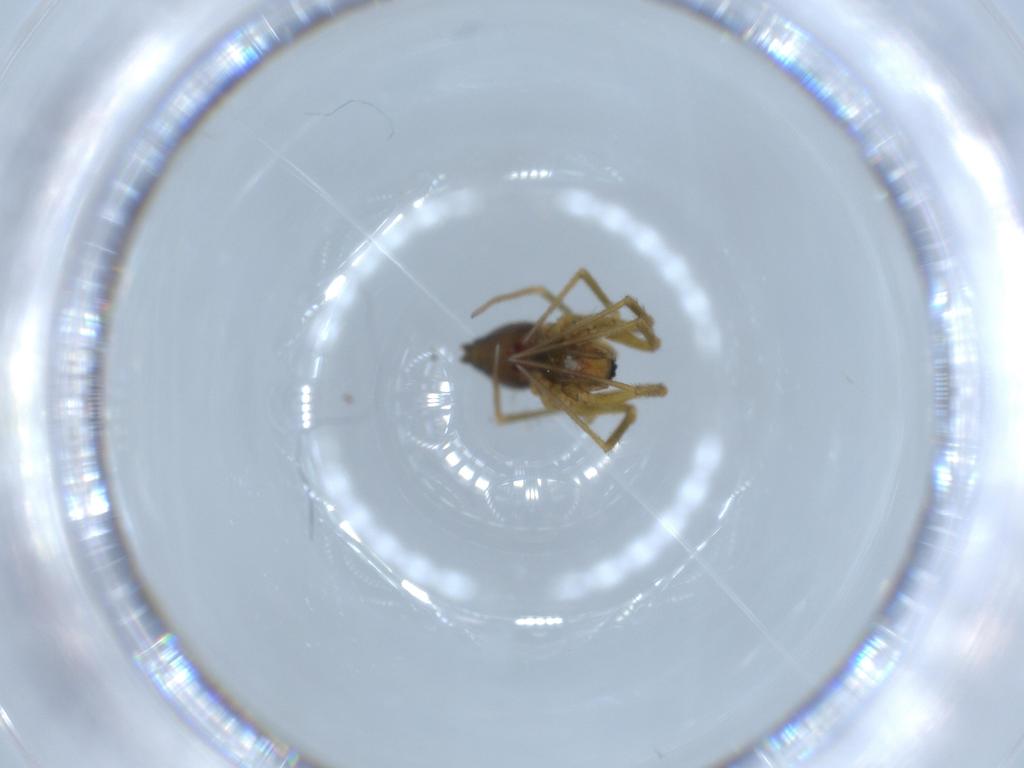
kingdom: Animalia
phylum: Arthropoda
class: Arachnida
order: Araneae
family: Linyphiidae
